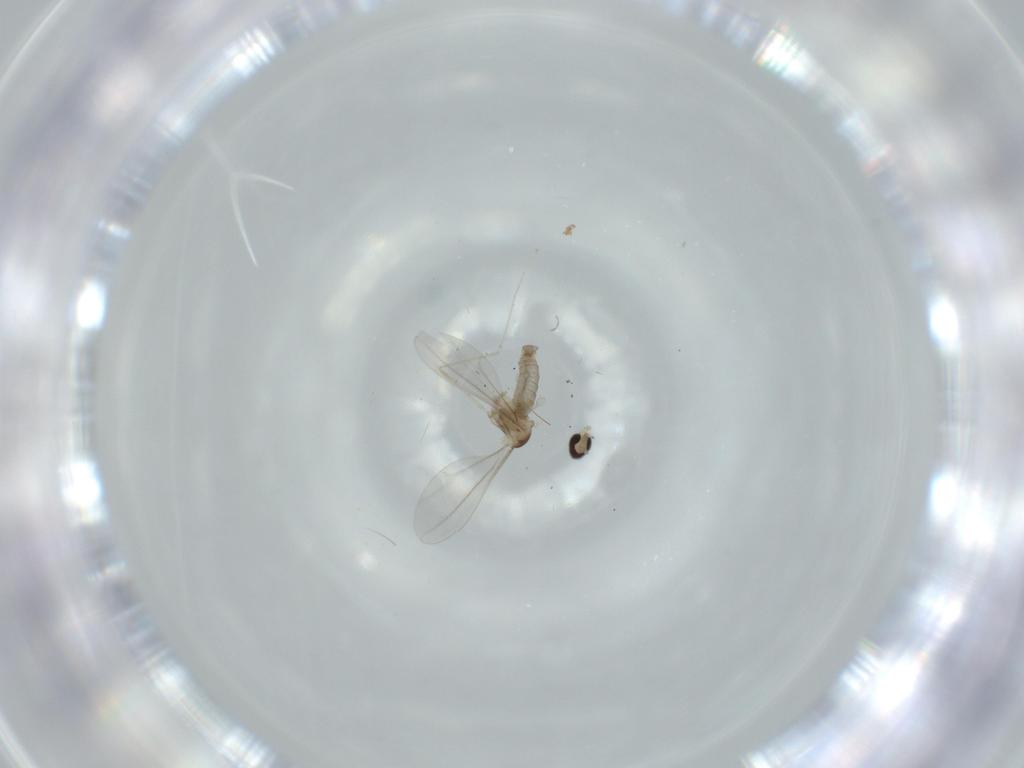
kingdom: Animalia
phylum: Arthropoda
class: Insecta
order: Diptera
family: Cecidomyiidae
